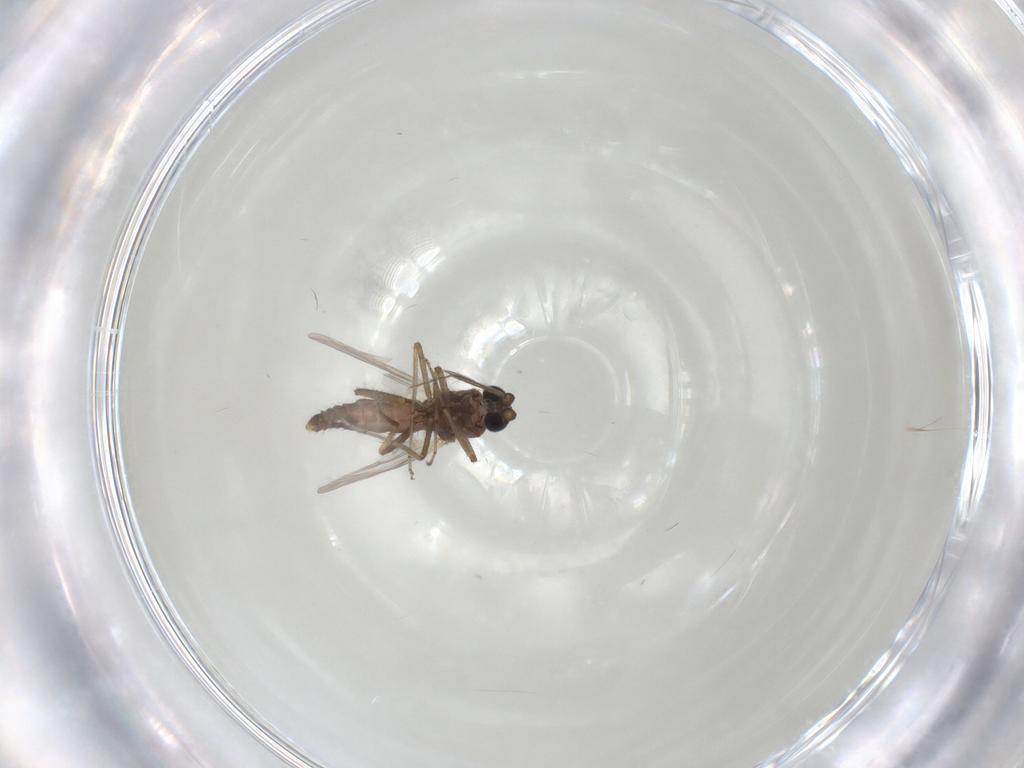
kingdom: Animalia
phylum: Arthropoda
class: Insecta
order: Diptera
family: Ceratopogonidae
